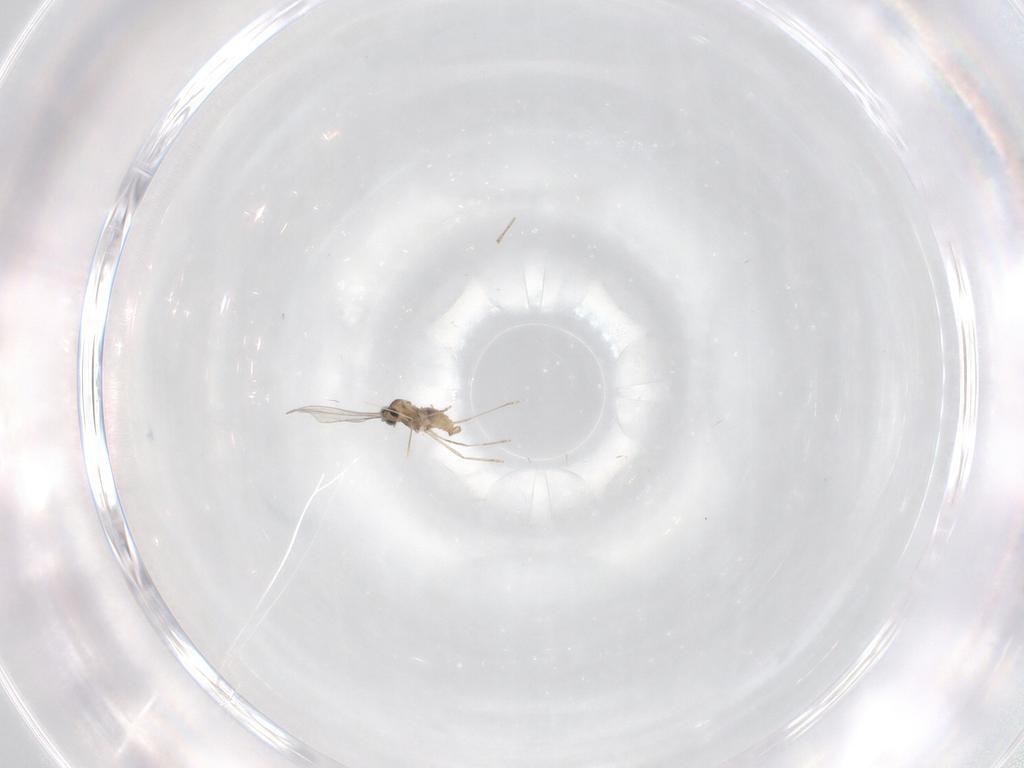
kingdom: Animalia
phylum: Arthropoda
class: Insecta
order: Diptera
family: Cecidomyiidae
